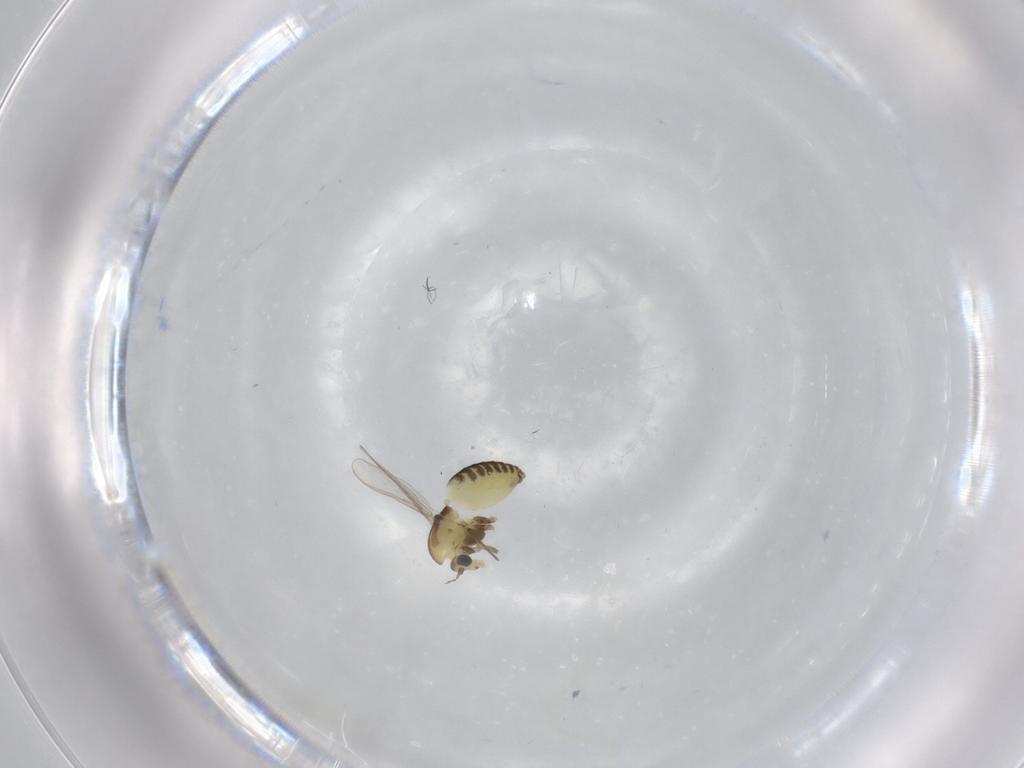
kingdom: Animalia
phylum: Arthropoda
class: Insecta
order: Diptera
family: Chironomidae
